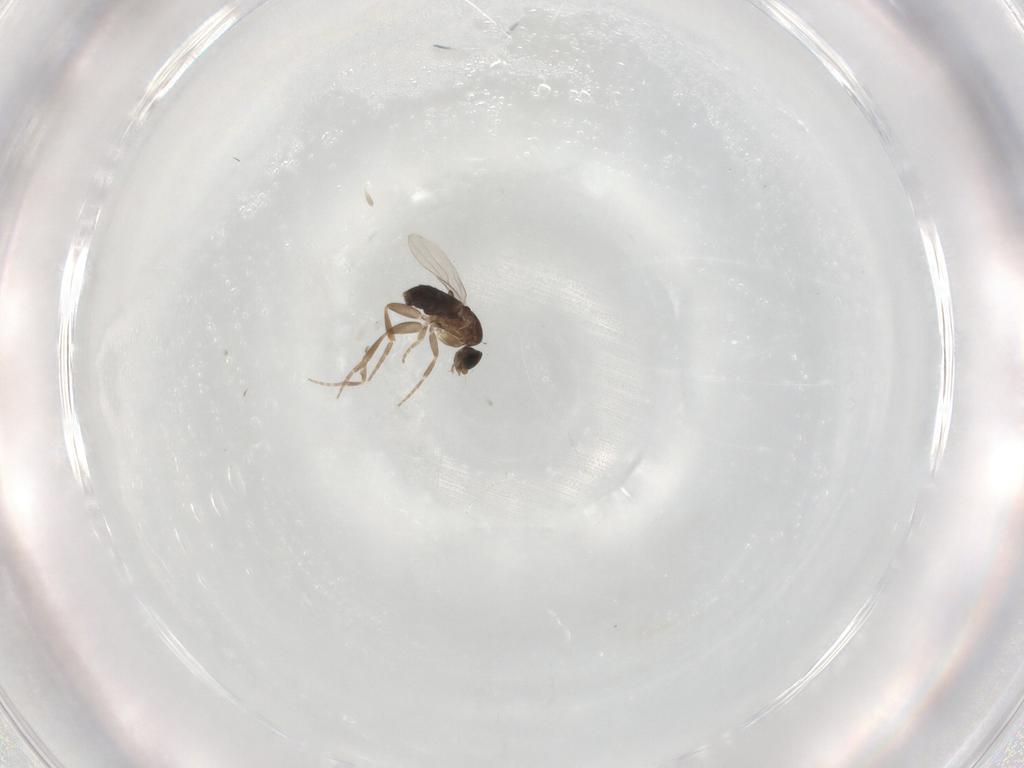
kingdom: Animalia
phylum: Arthropoda
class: Insecta
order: Diptera
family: Phoridae
